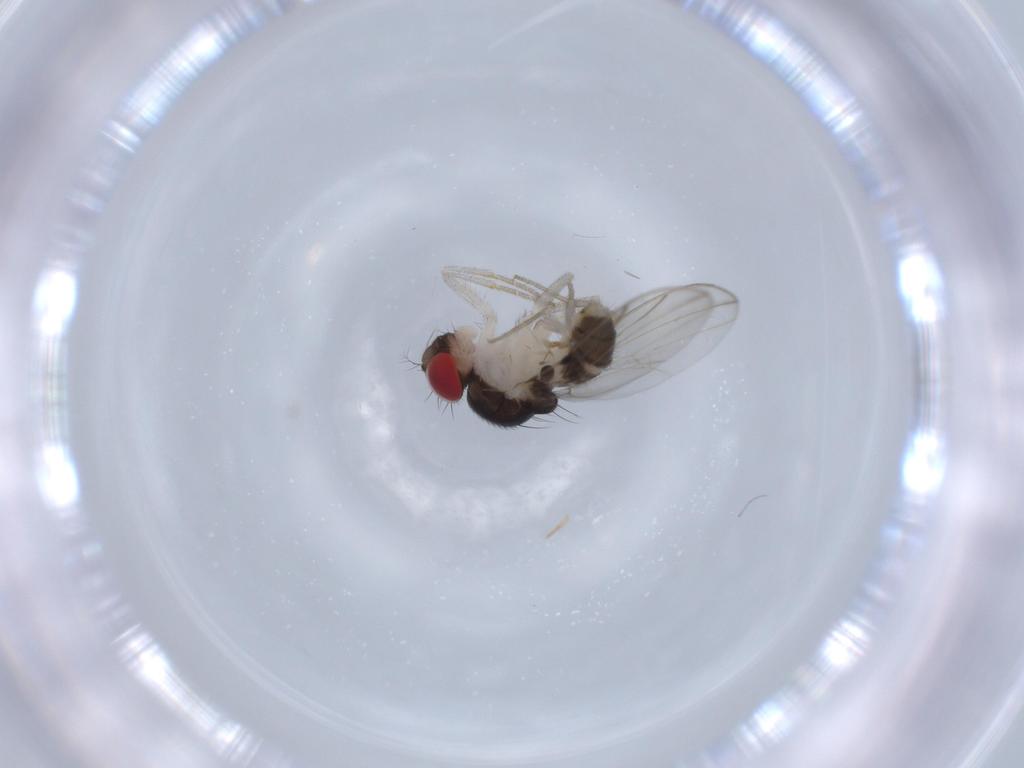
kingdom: Animalia
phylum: Arthropoda
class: Insecta
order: Diptera
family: Drosophilidae
